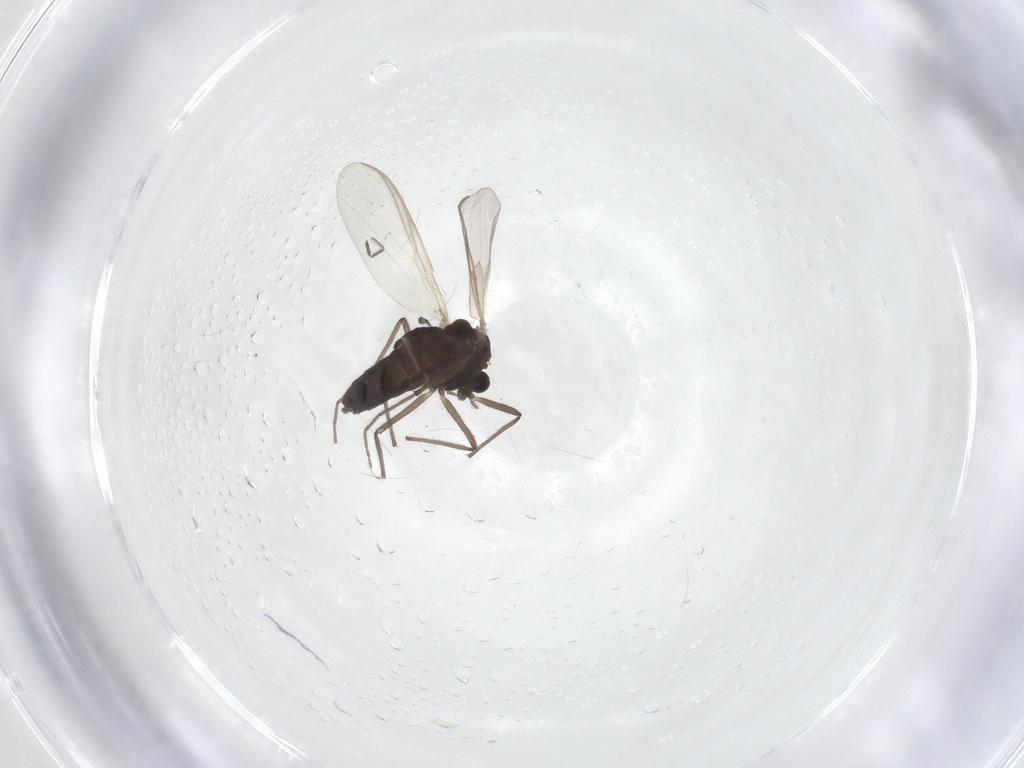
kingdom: Animalia
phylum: Arthropoda
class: Insecta
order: Diptera
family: Chironomidae
